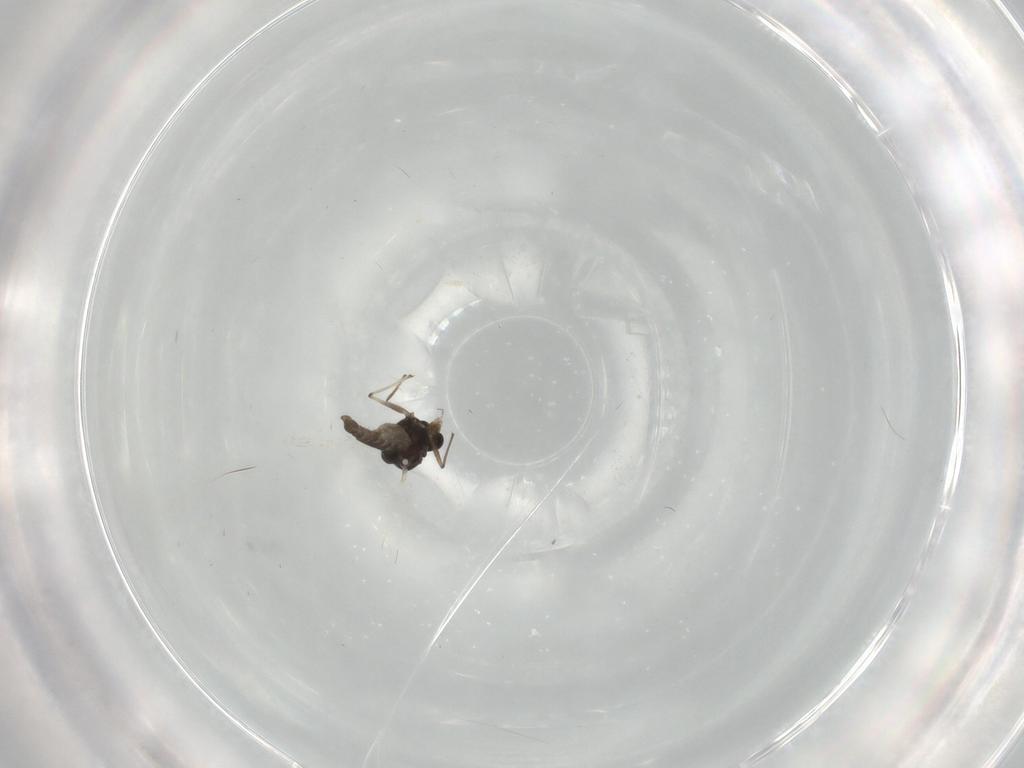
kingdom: Animalia
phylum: Arthropoda
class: Insecta
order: Diptera
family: Chironomidae
